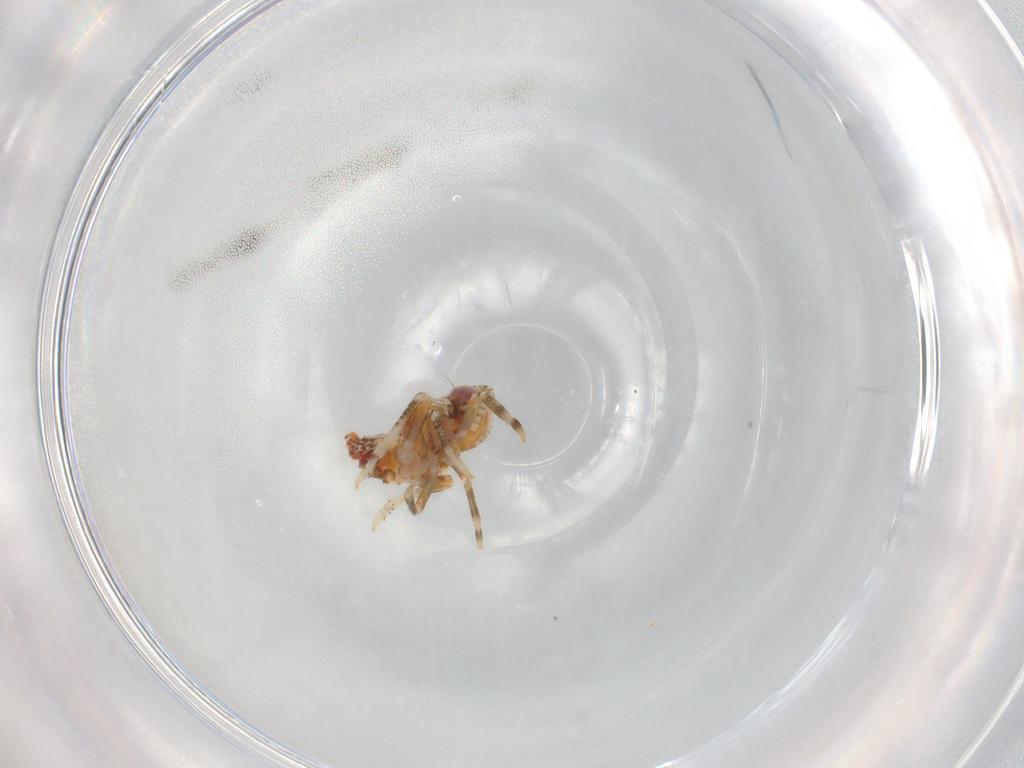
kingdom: Animalia
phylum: Arthropoda
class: Insecta
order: Hemiptera
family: Tropiduchidae
